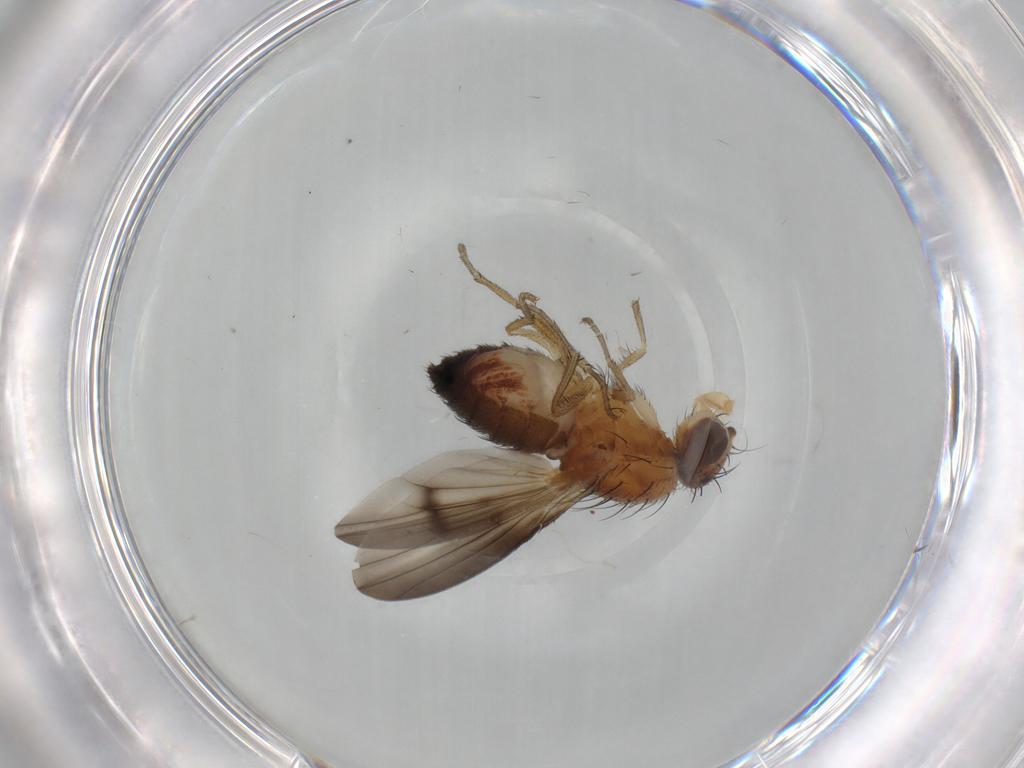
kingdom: Animalia
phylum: Arthropoda
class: Insecta
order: Diptera
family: Heleomyzidae
